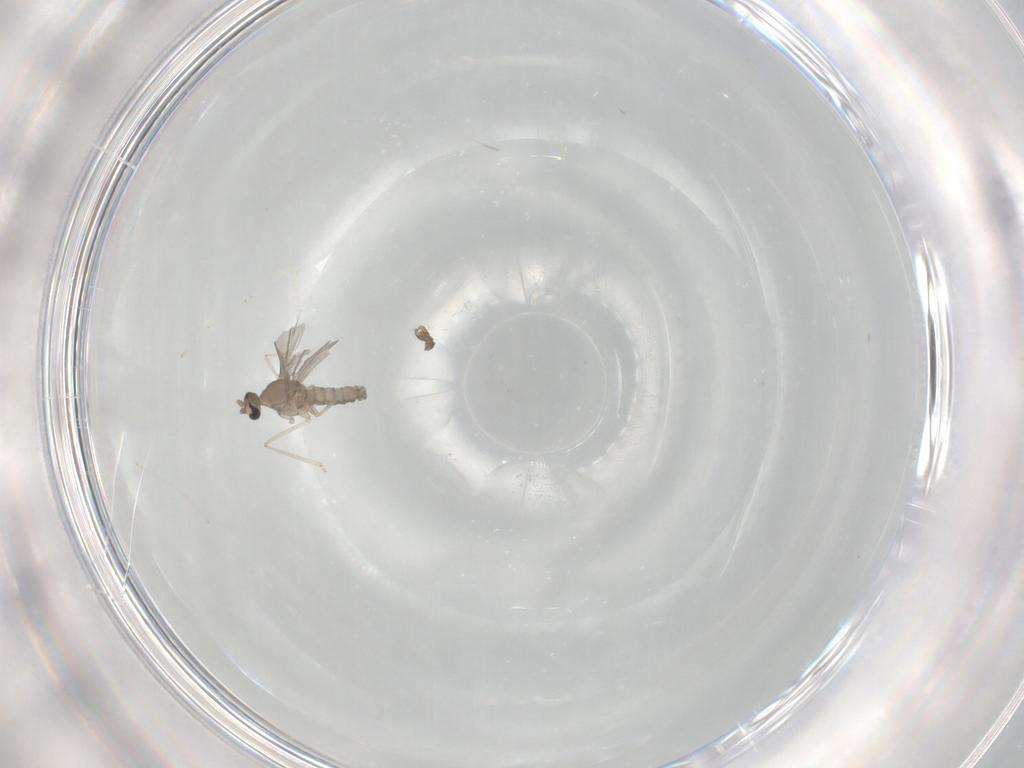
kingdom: Animalia
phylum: Arthropoda
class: Insecta
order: Diptera
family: Cecidomyiidae
